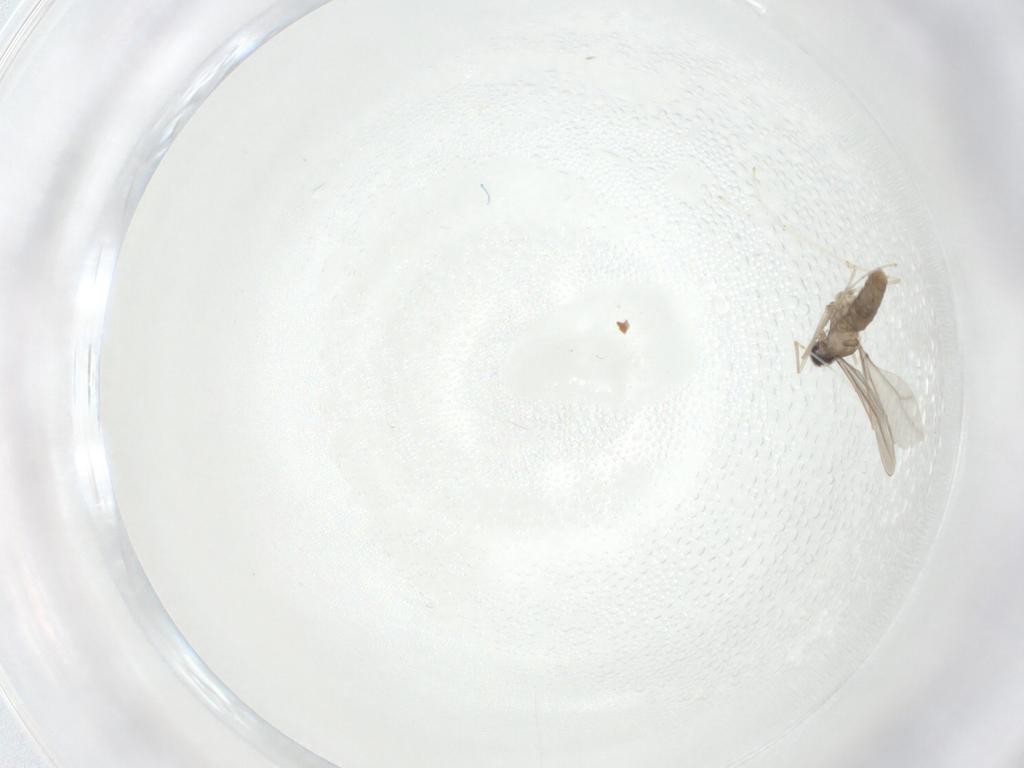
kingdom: Animalia
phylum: Arthropoda
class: Insecta
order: Diptera
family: Cecidomyiidae
